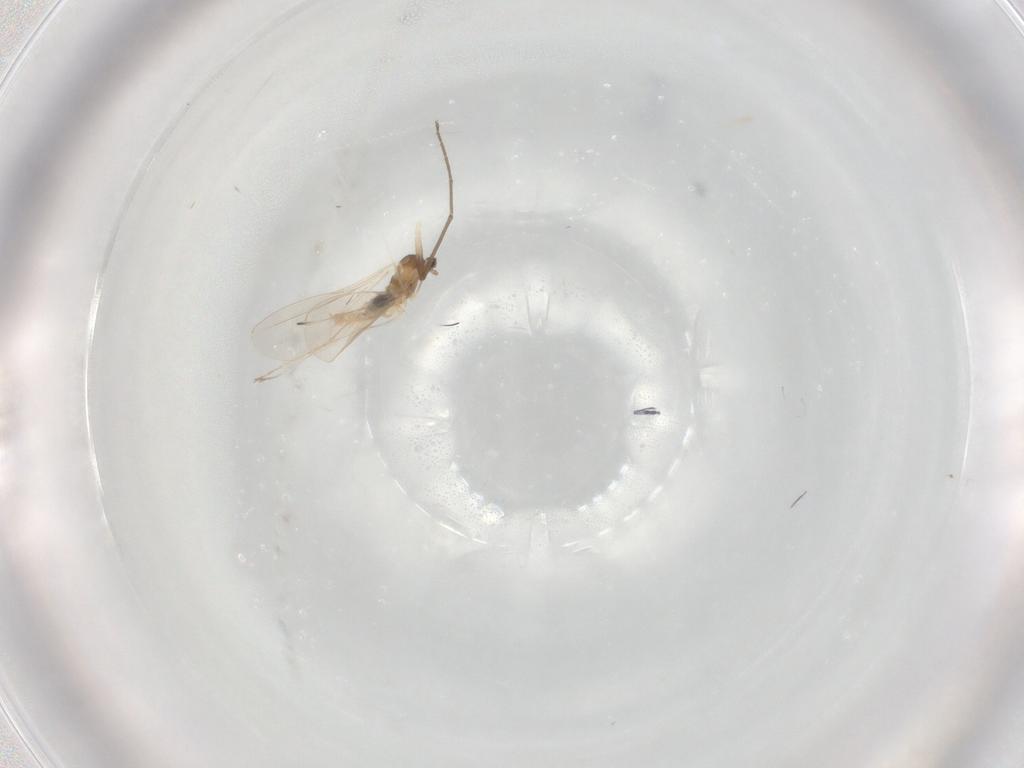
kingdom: Animalia
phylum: Arthropoda
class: Insecta
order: Diptera
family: Cecidomyiidae
